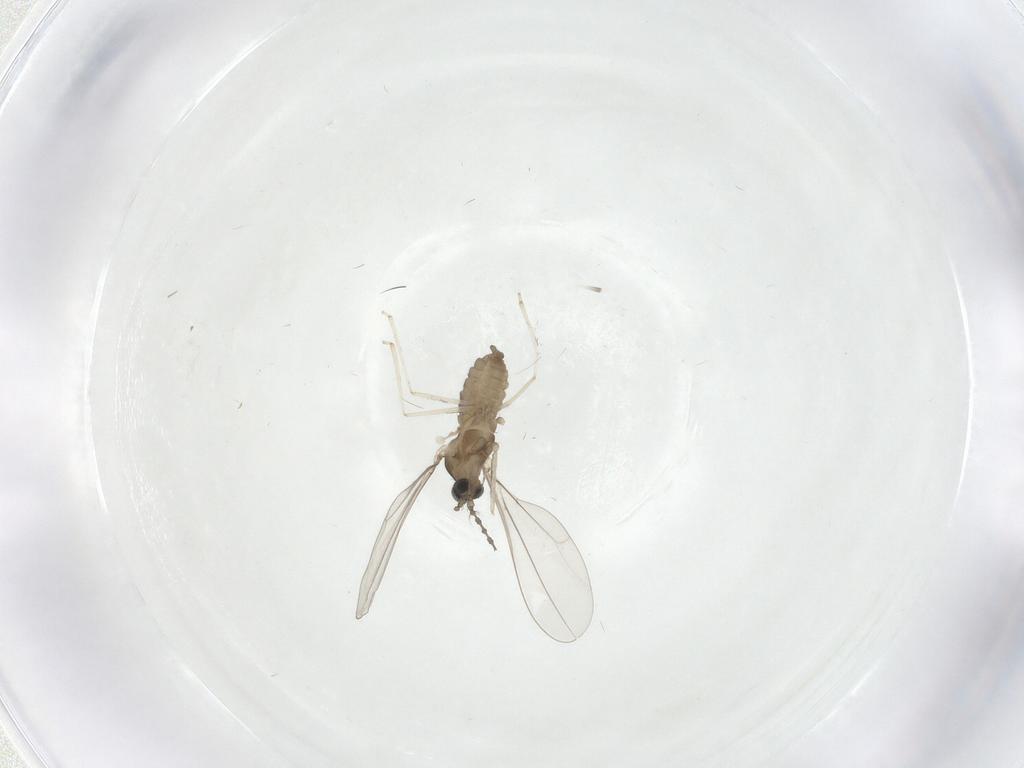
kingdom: Animalia
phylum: Arthropoda
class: Insecta
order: Diptera
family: Cecidomyiidae
